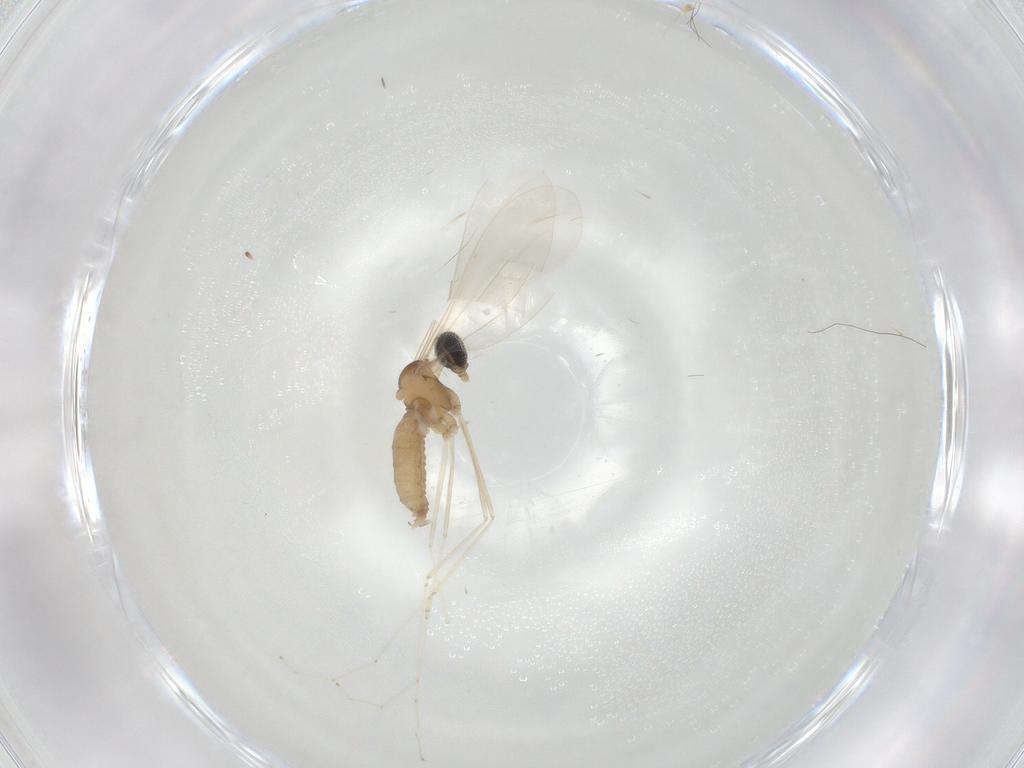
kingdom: Animalia
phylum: Arthropoda
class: Insecta
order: Diptera
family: Cecidomyiidae
